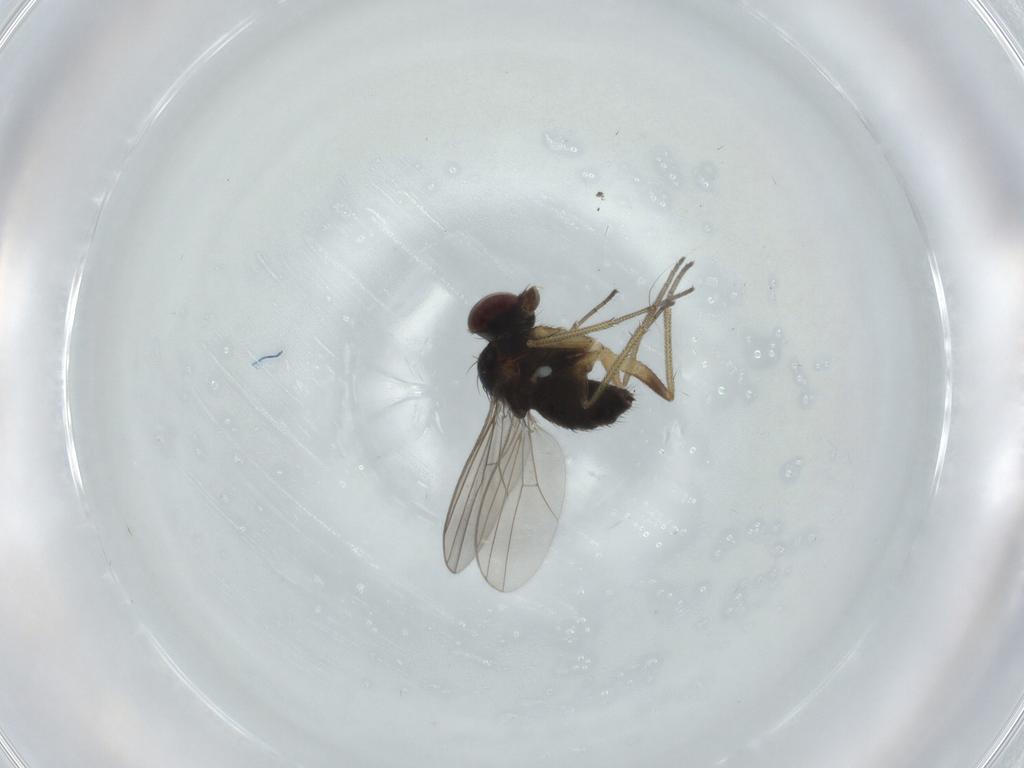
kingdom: Animalia
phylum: Arthropoda
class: Insecta
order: Diptera
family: Dolichopodidae
